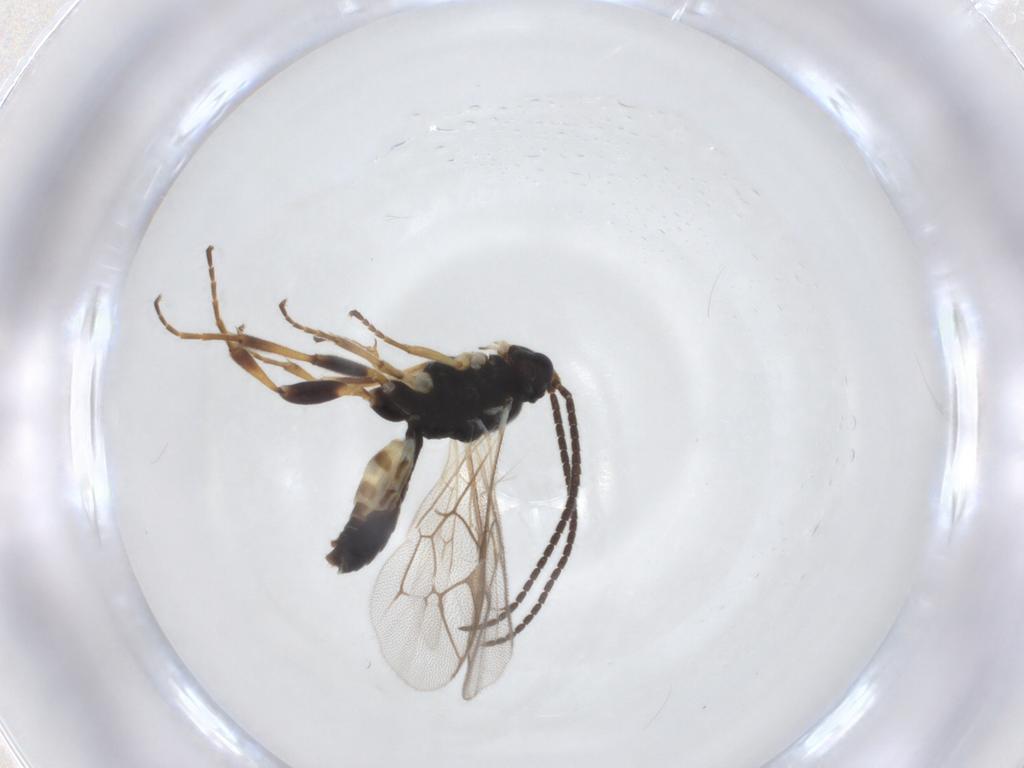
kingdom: Animalia
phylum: Arthropoda
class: Insecta
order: Hymenoptera
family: Ichneumonidae
